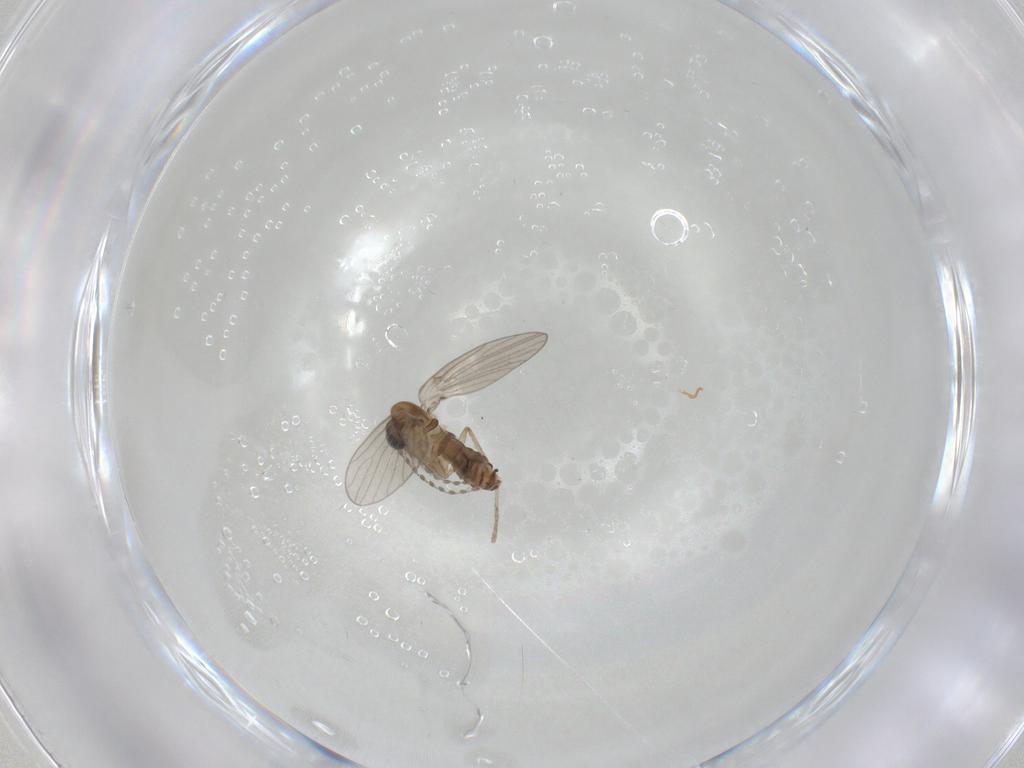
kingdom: Animalia
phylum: Arthropoda
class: Insecta
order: Diptera
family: Psychodidae
